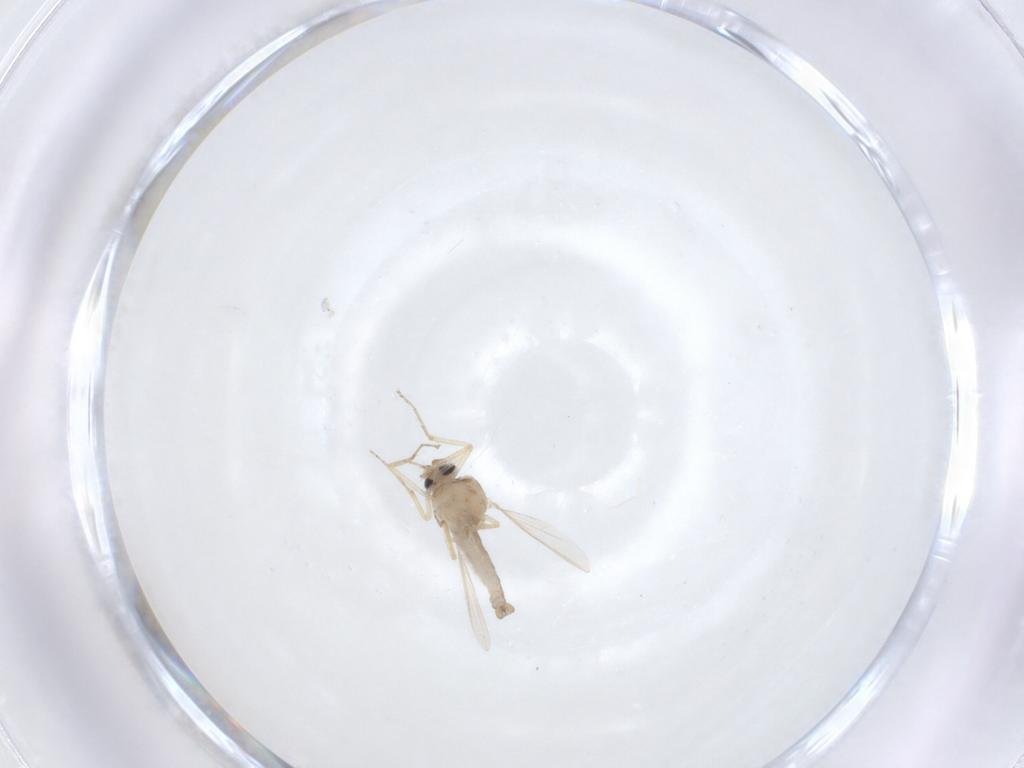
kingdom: Animalia
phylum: Arthropoda
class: Insecta
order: Diptera
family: Ceratopogonidae
